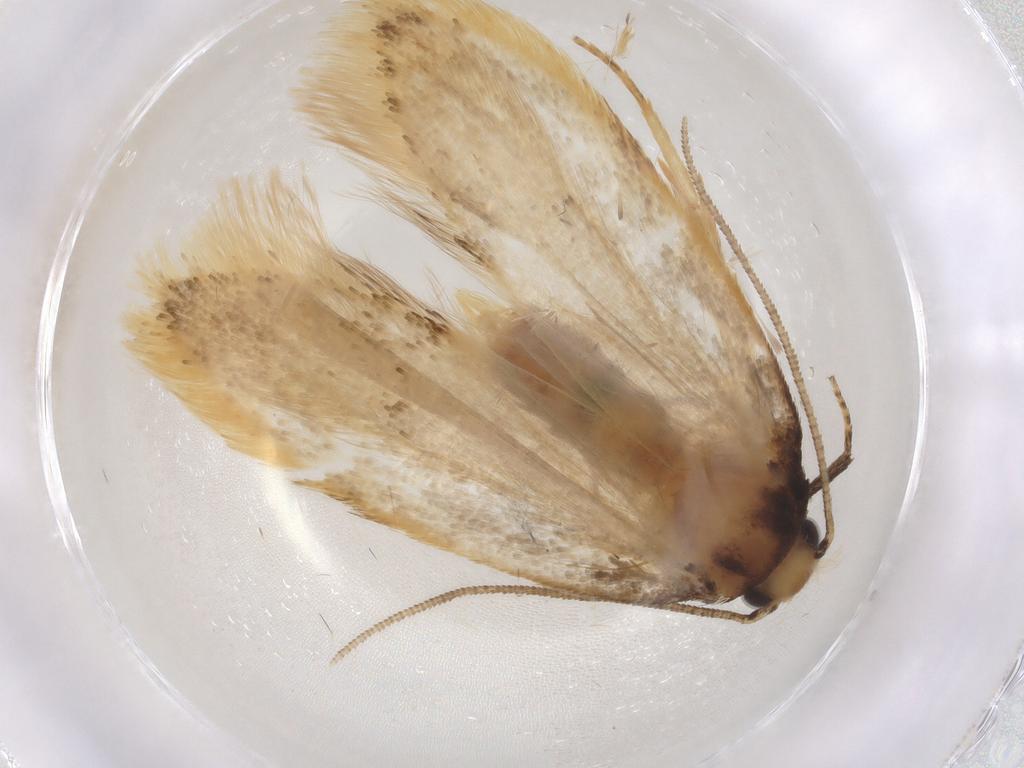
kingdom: Animalia
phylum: Arthropoda
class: Insecta
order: Lepidoptera
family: Depressariidae
